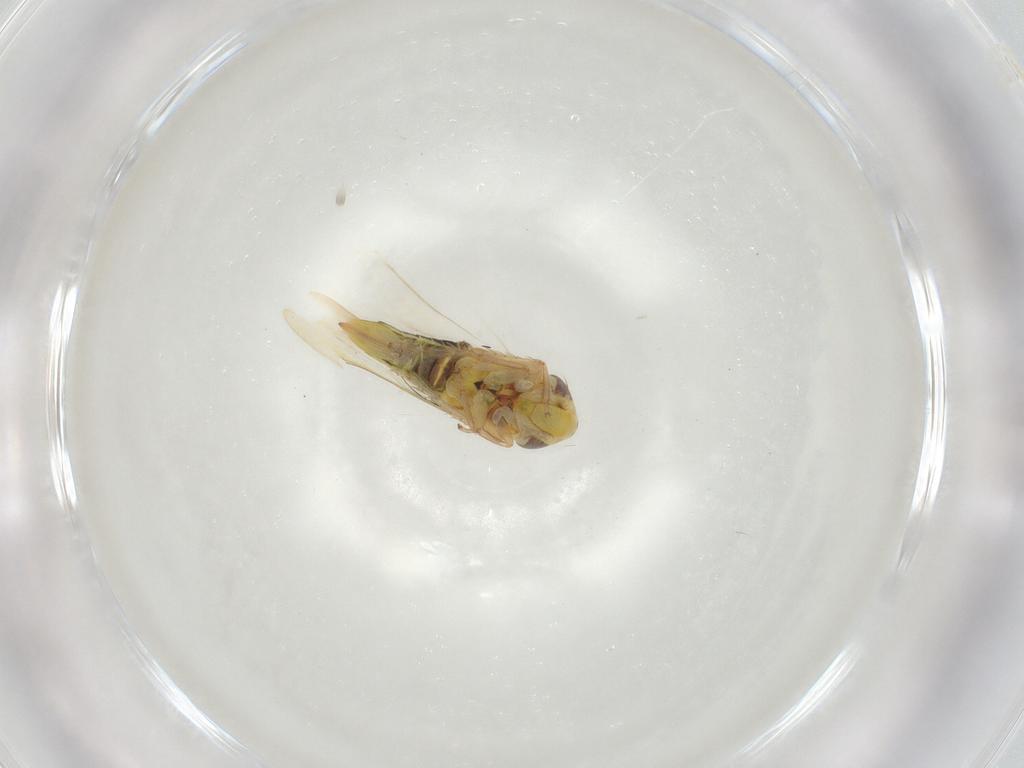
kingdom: Animalia
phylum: Arthropoda
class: Insecta
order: Hemiptera
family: Cicadellidae
